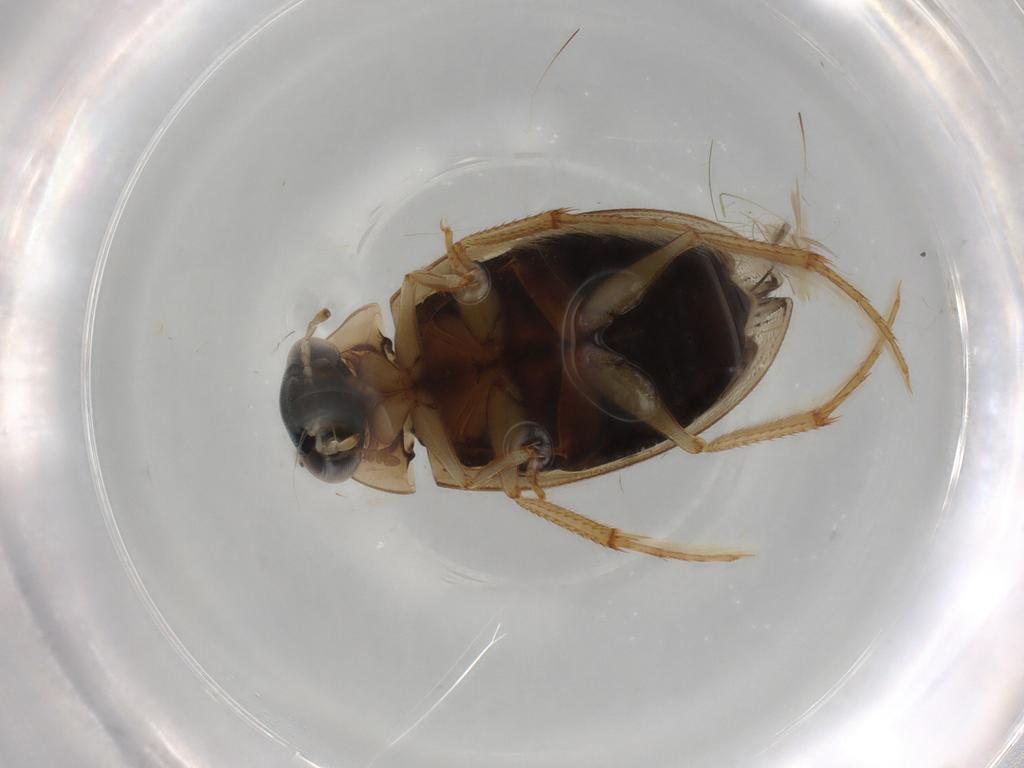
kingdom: Animalia
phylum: Arthropoda
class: Insecta
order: Coleoptera
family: Hydrophilidae
